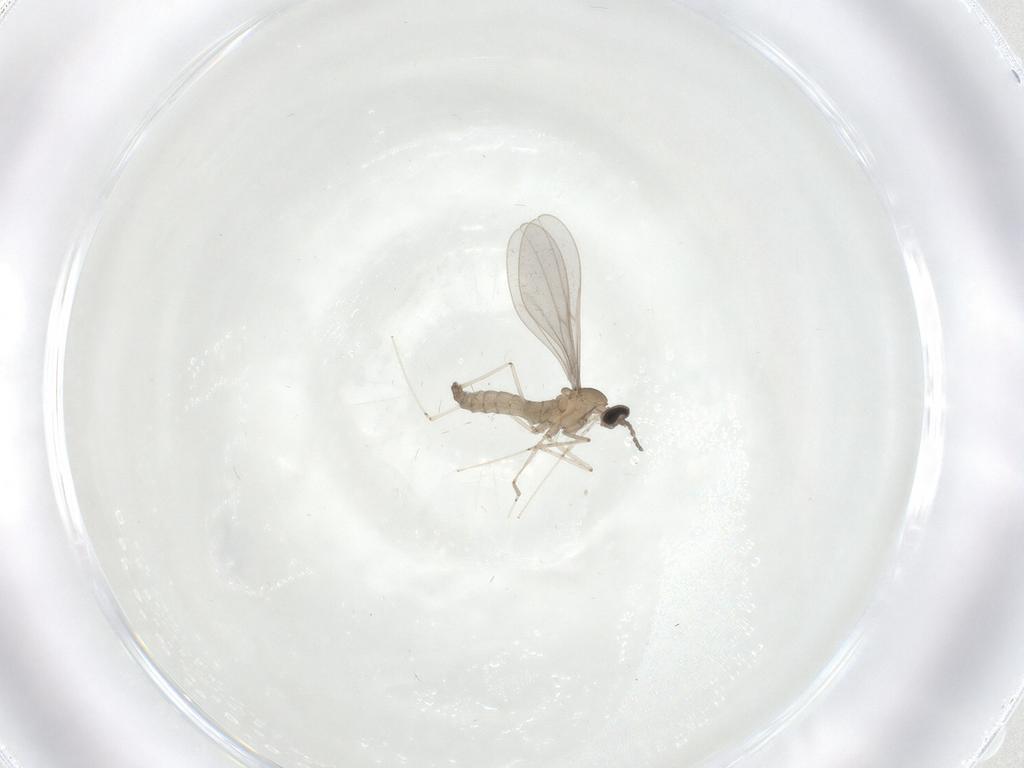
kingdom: Animalia
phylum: Arthropoda
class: Insecta
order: Diptera
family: Cecidomyiidae
